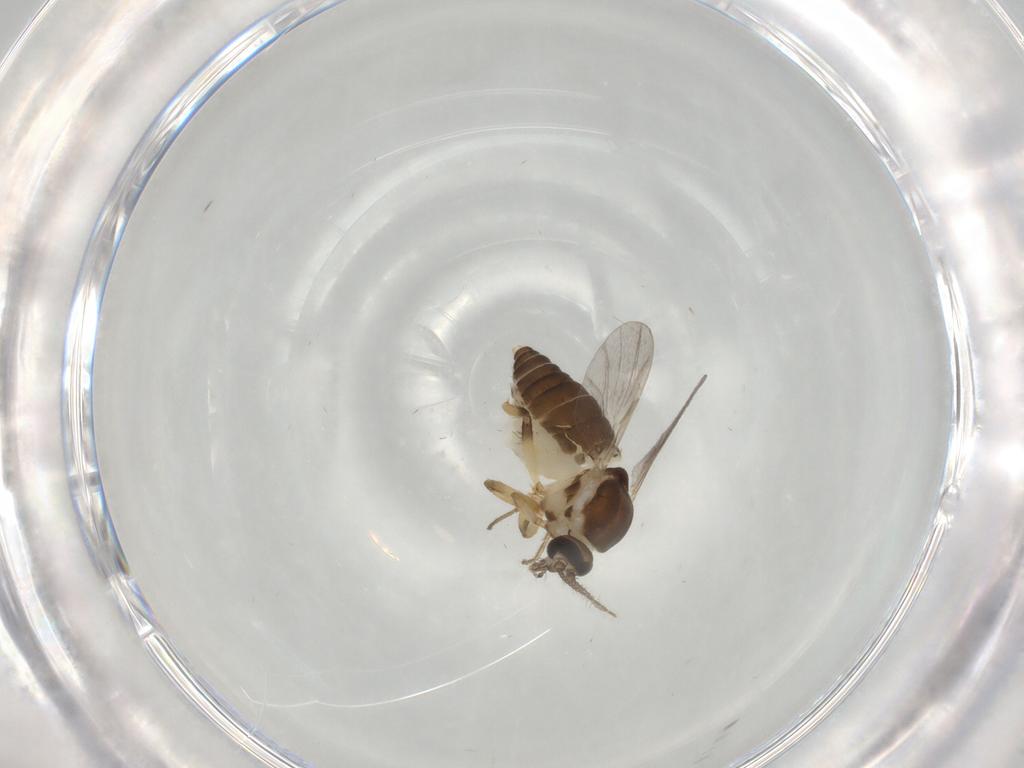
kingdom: Animalia
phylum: Arthropoda
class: Insecta
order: Diptera
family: Ceratopogonidae
